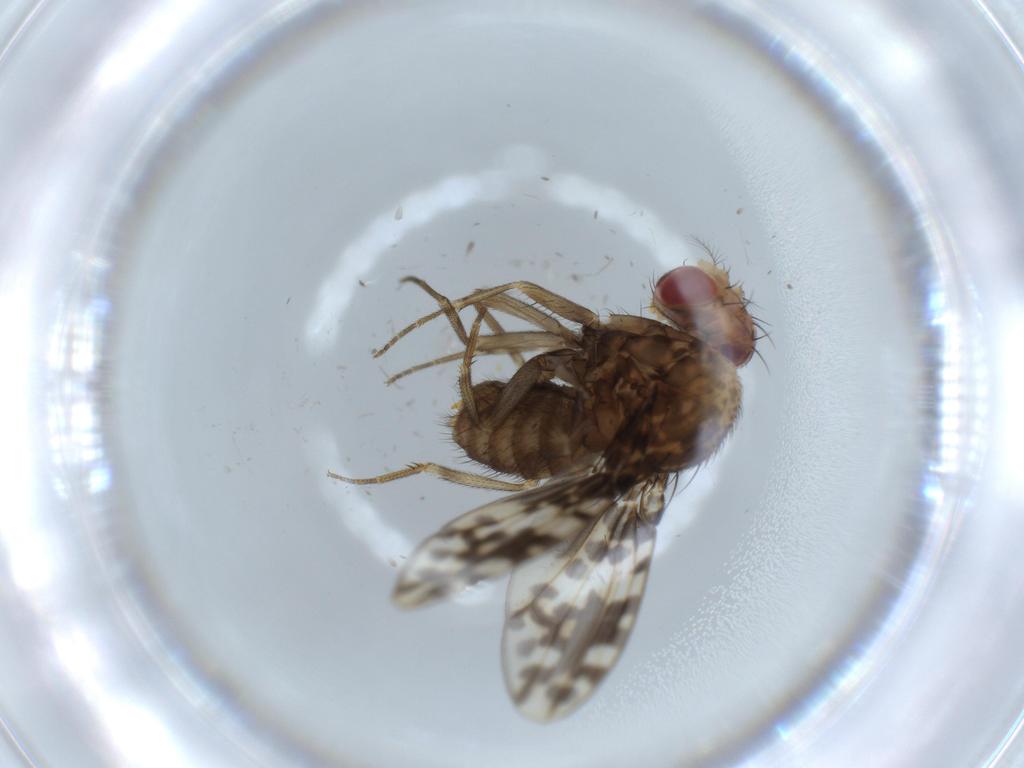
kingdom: Animalia
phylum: Arthropoda
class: Insecta
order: Diptera
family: Drosophilidae
